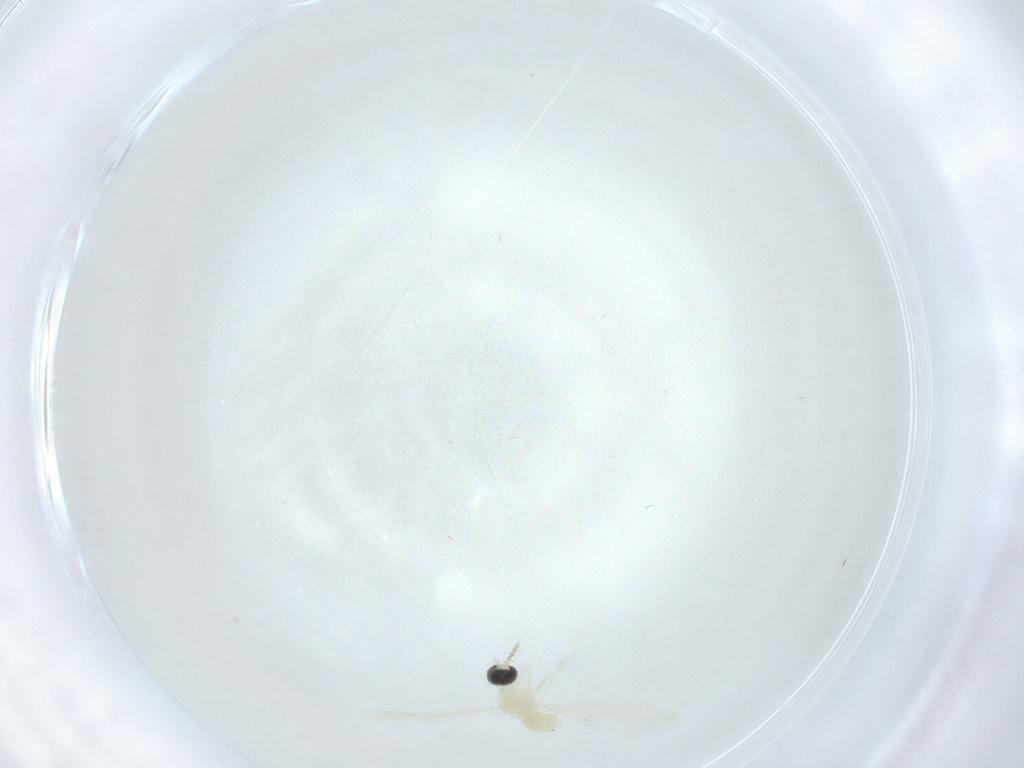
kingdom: Animalia
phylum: Arthropoda
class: Insecta
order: Diptera
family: Cecidomyiidae
